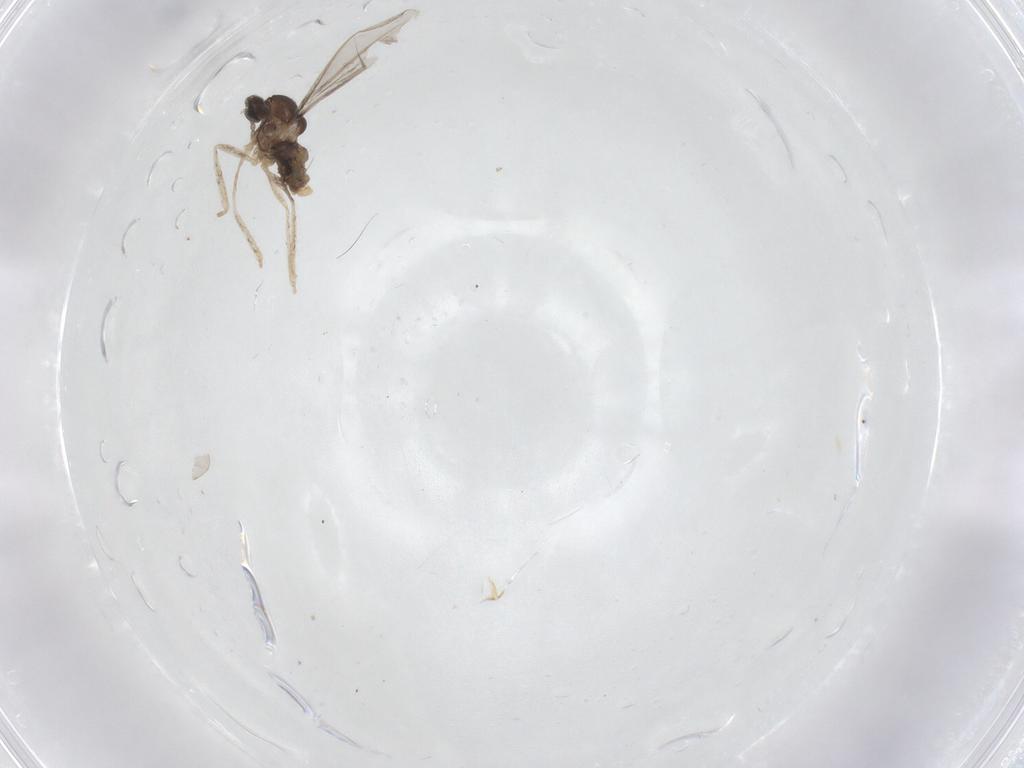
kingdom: Animalia
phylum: Arthropoda
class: Insecta
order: Diptera
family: Cecidomyiidae
